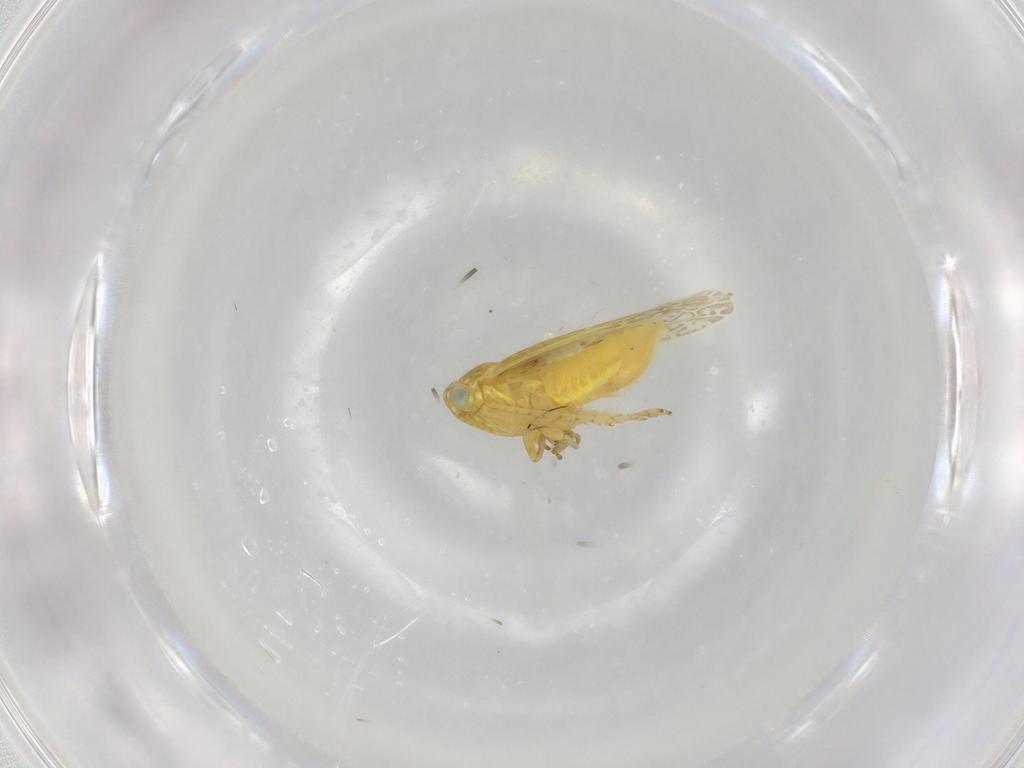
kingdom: Animalia
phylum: Arthropoda
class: Insecta
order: Hemiptera
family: Cicadellidae
